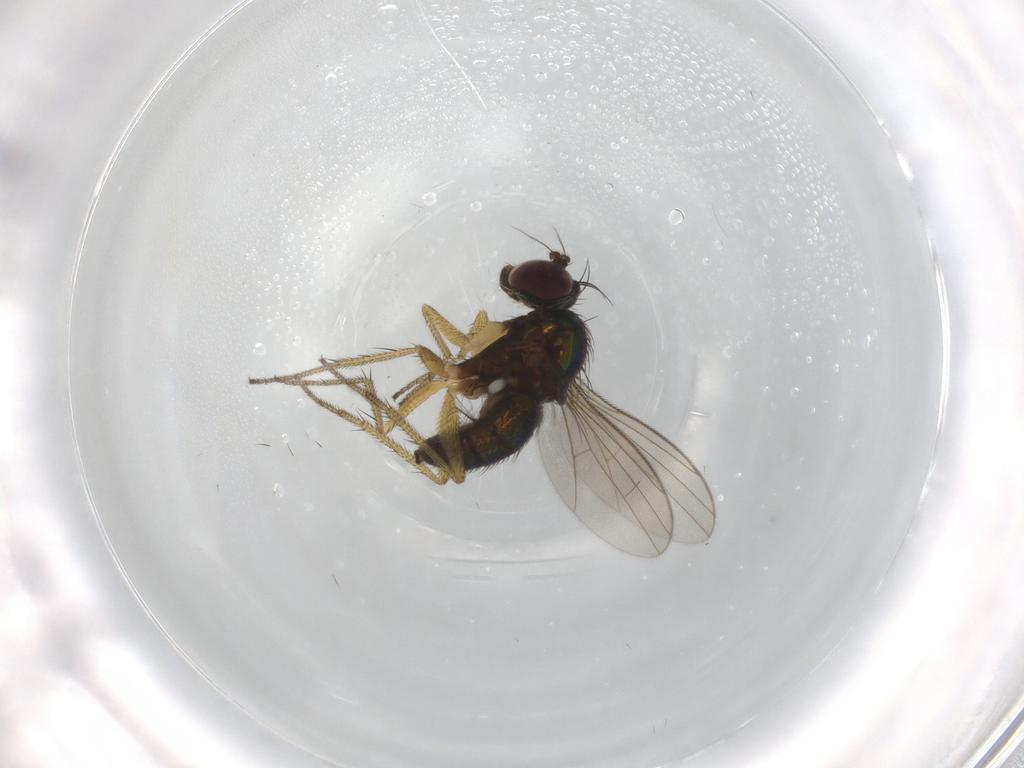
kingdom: Animalia
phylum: Arthropoda
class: Insecta
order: Diptera
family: Dolichopodidae
